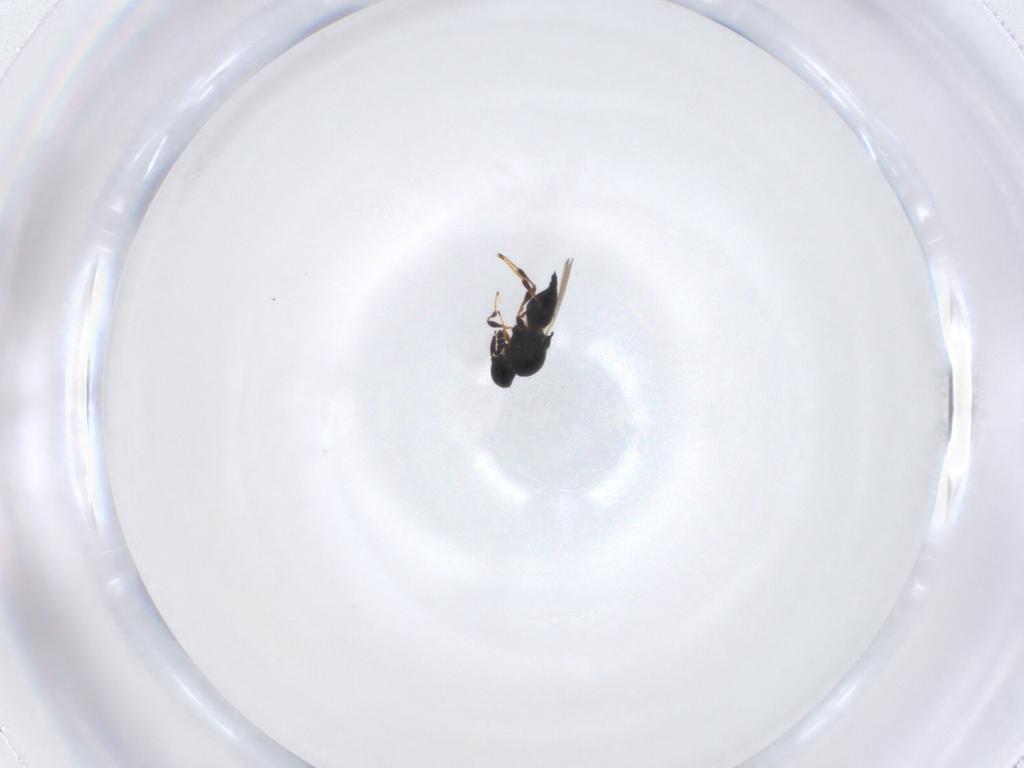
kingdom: Animalia
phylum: Arthropoda
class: Insecta
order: Hymenoptera
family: Platygastridae
